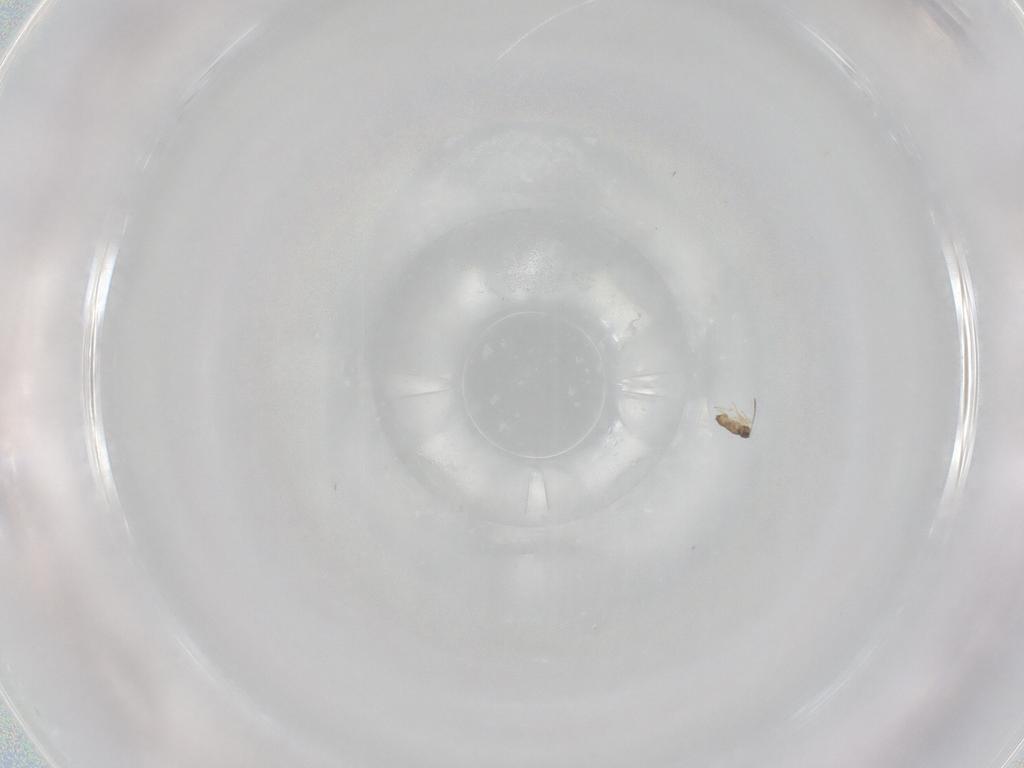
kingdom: Animalia
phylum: Arthropoda
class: Insecta
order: Hymenoptera
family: Mymaridae
